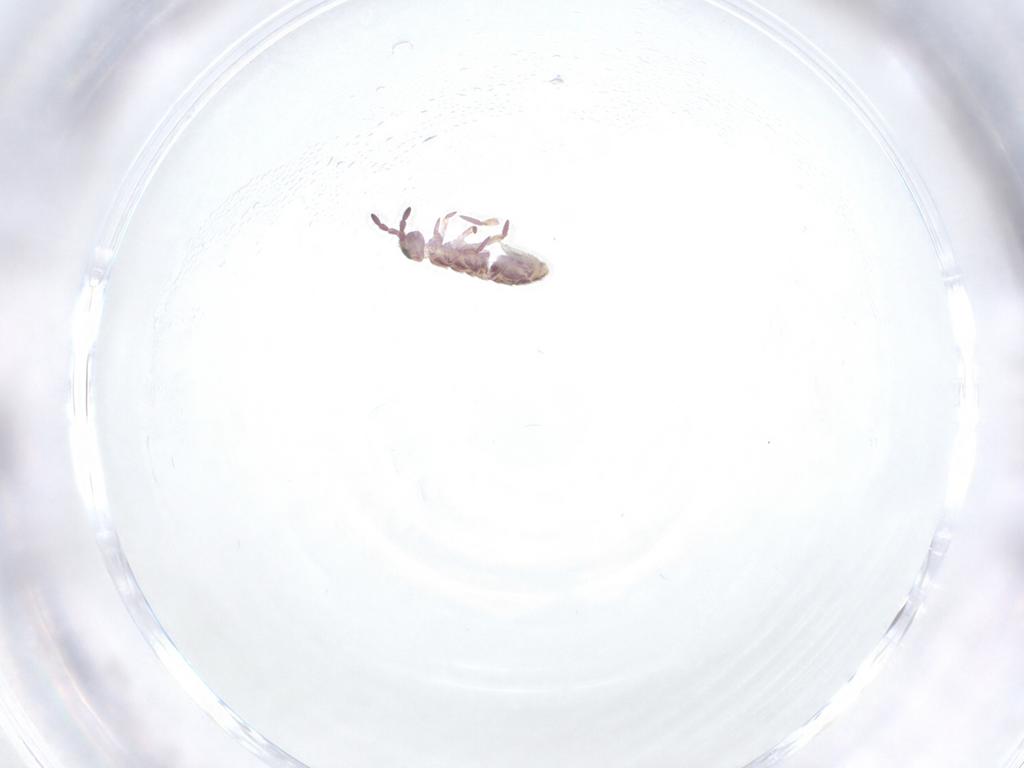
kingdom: Animalia
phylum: Arthropoda
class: Collembola
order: Entomobryomorpha
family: Isotomidae
